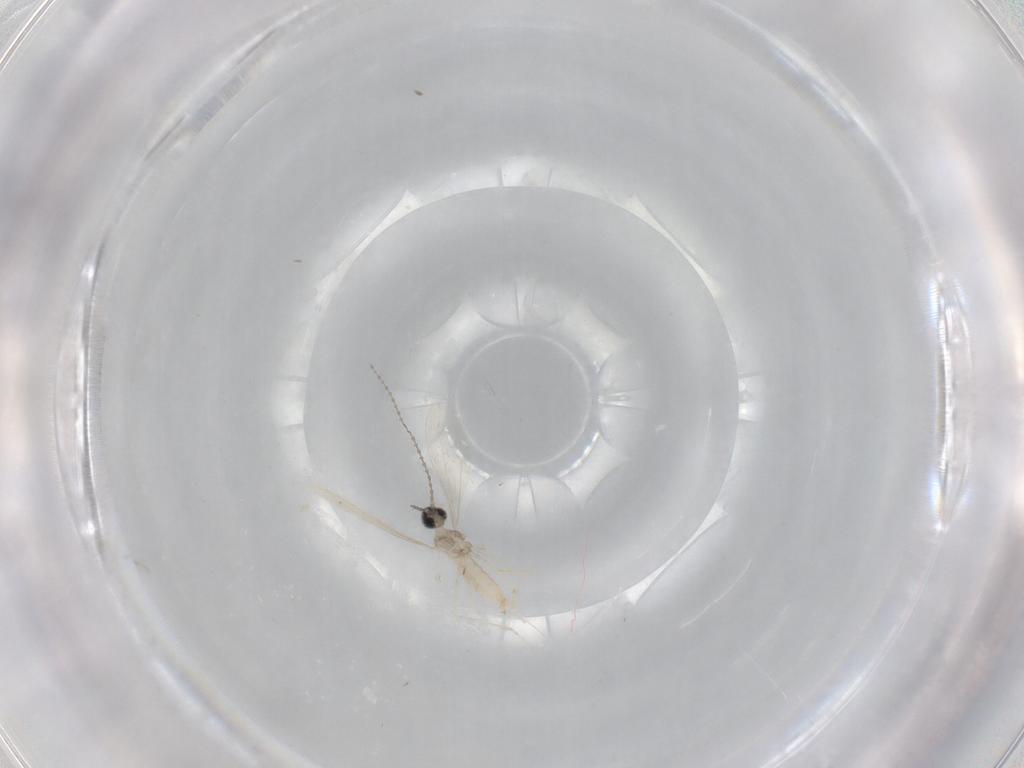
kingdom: Animalia
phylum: Arthropoda
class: Insecta
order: Diptera
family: Cecidomyiidae
